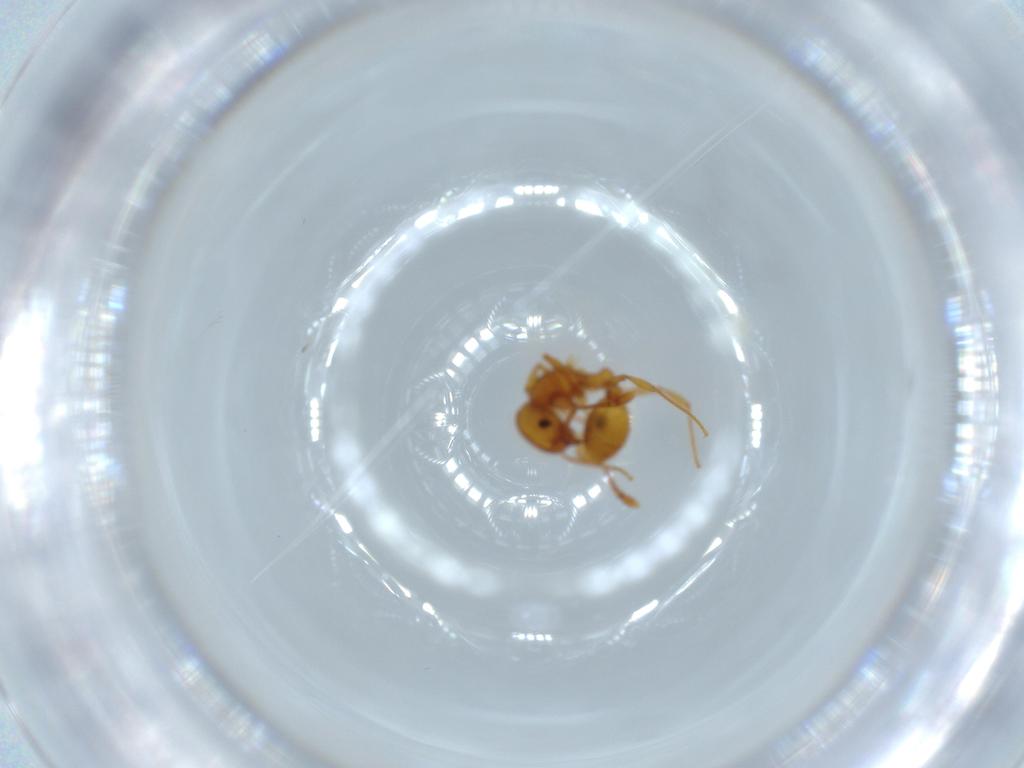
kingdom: Animalia
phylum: Arthropoda
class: Insecta
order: Hymenoptera
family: Formicidae
